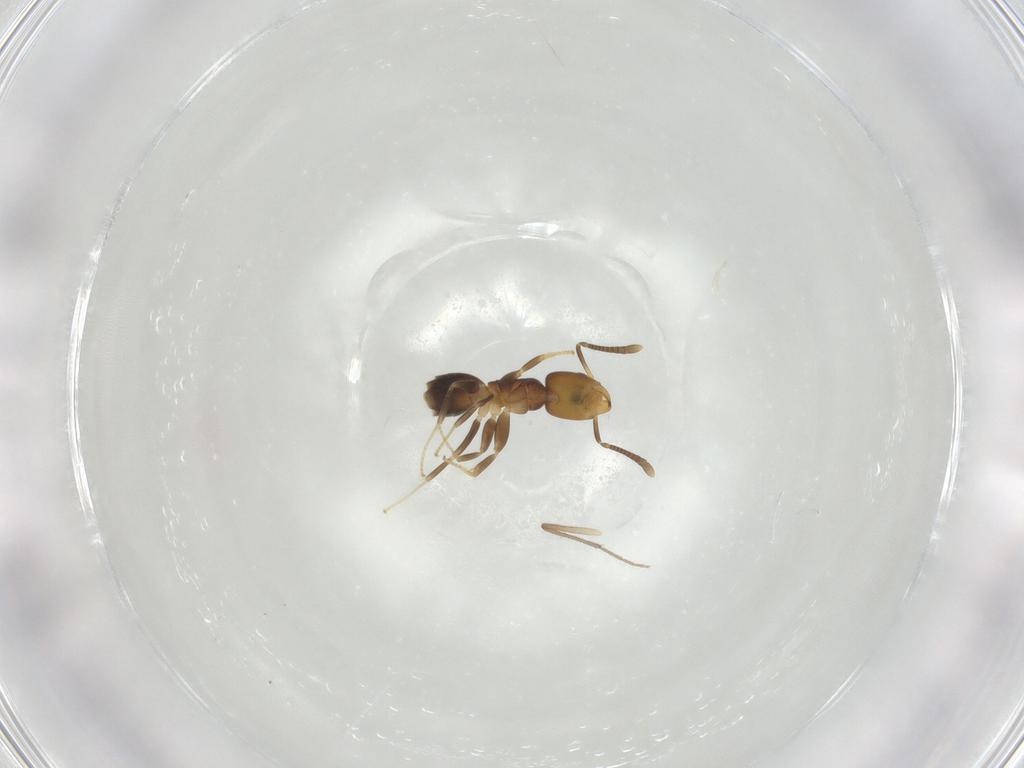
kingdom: Animalia
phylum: Arthropoda
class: Insecta
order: Hymenoptera
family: Formicidae
